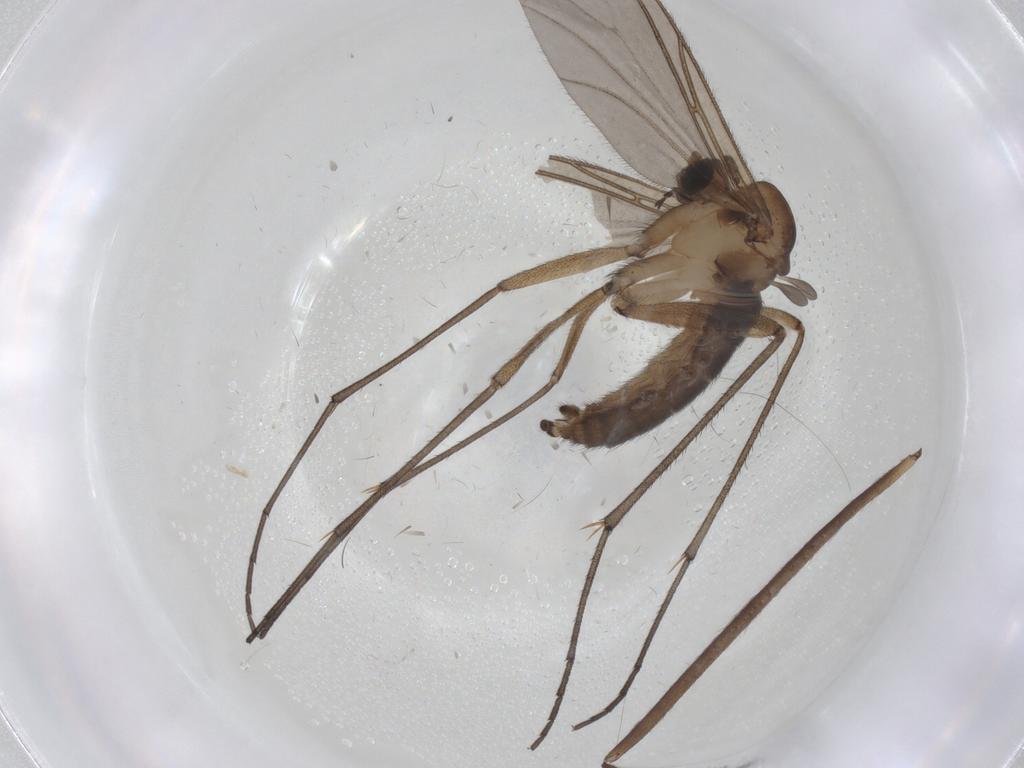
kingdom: Animalia
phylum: Arthropoda
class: Insecta
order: Diptera
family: Sciaridae
